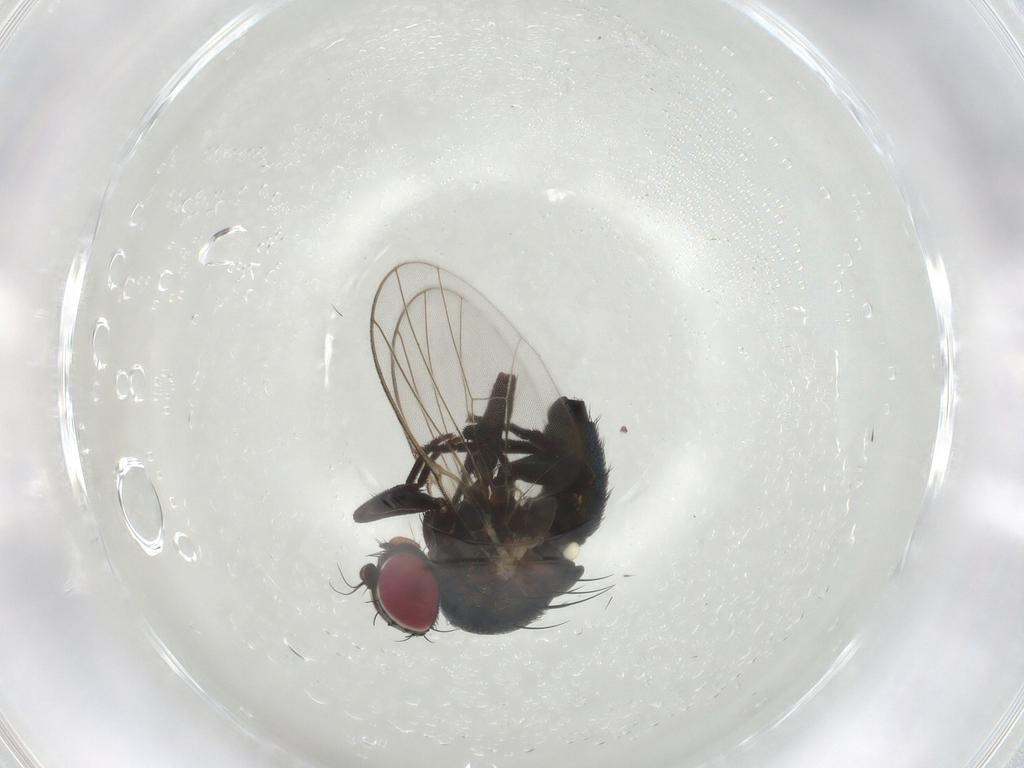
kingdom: Animalia
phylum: Arthropoda
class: Insecta
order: Diptera
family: Agromyzidae
